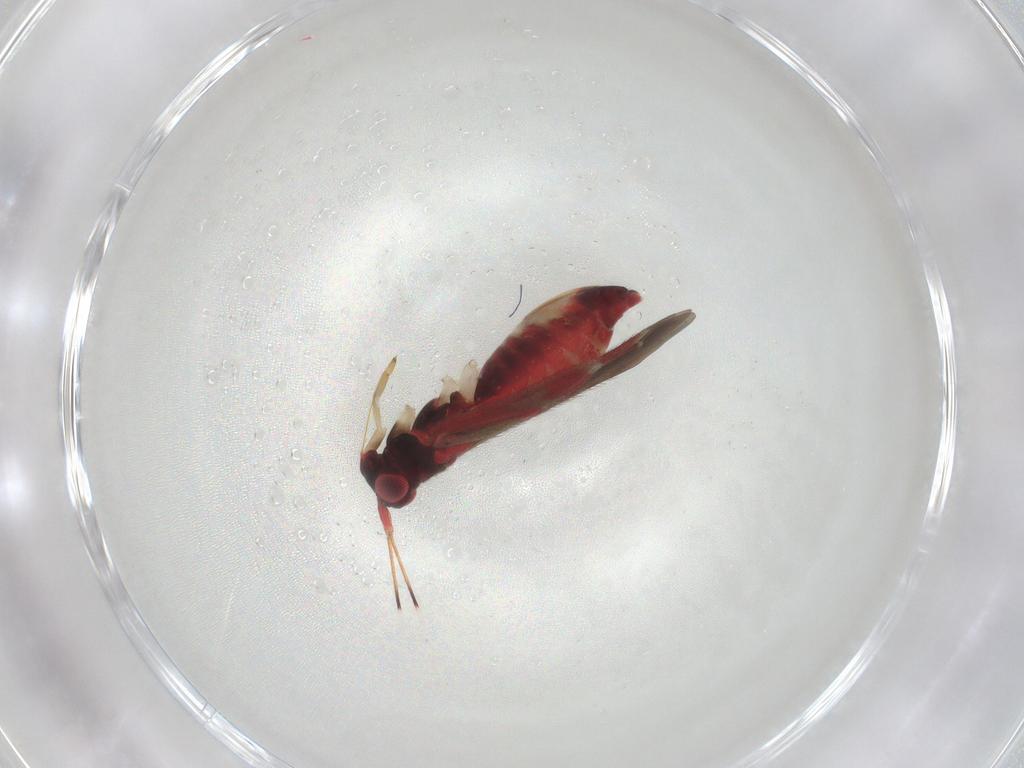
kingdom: Animalia
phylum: Arthropoda
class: Insecta
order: Hemiptera
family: Miridae
